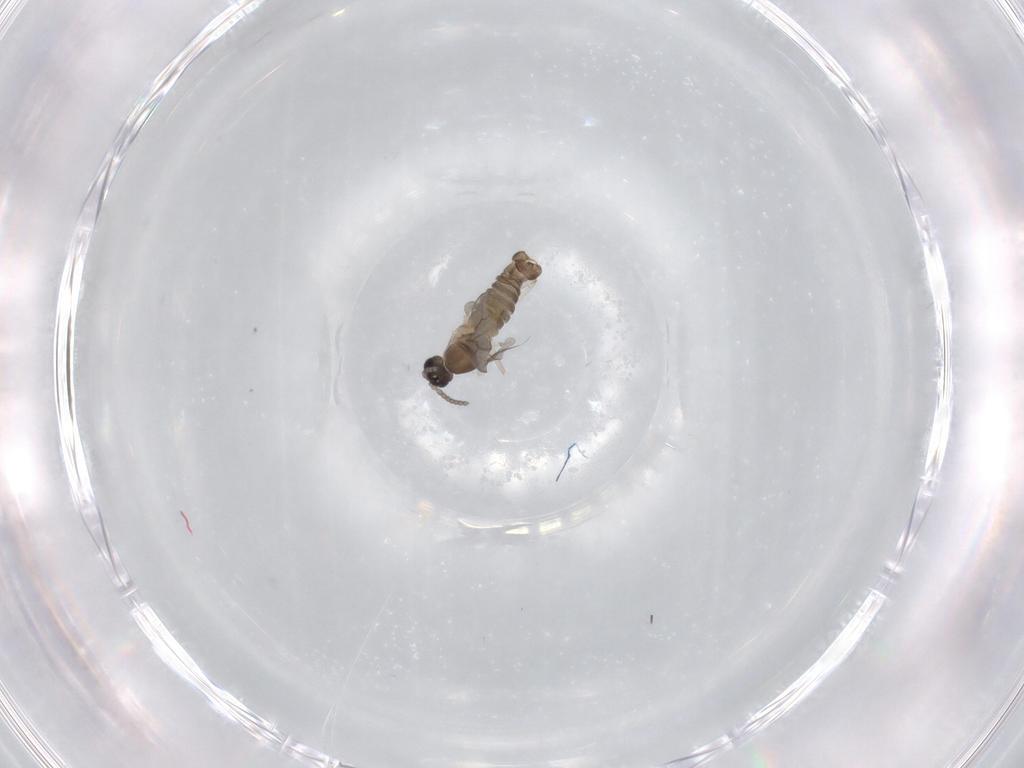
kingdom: Animalia
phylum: Arthropoda
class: Insecta
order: Diptera
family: Cecidomyiidae
